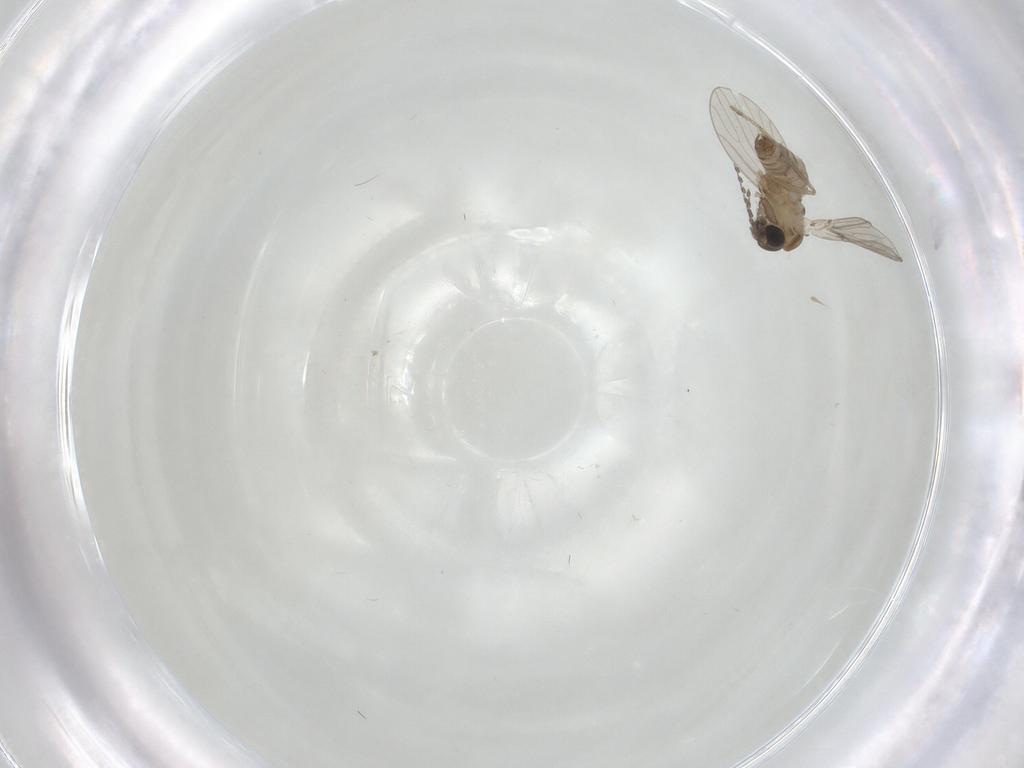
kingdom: Animalia
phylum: Arthropoda
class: Insecta
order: Diptera
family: Psychodidae
